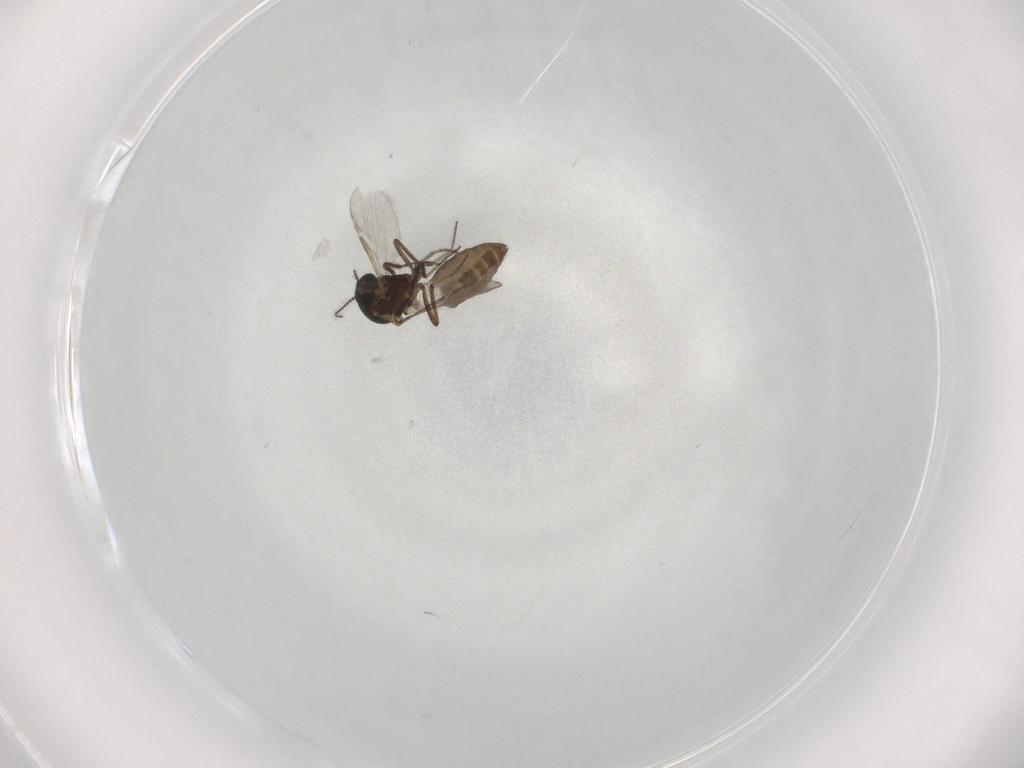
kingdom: Animalia
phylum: Arthropoda
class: Insecta
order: Diptera
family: Ceratopogonidae
